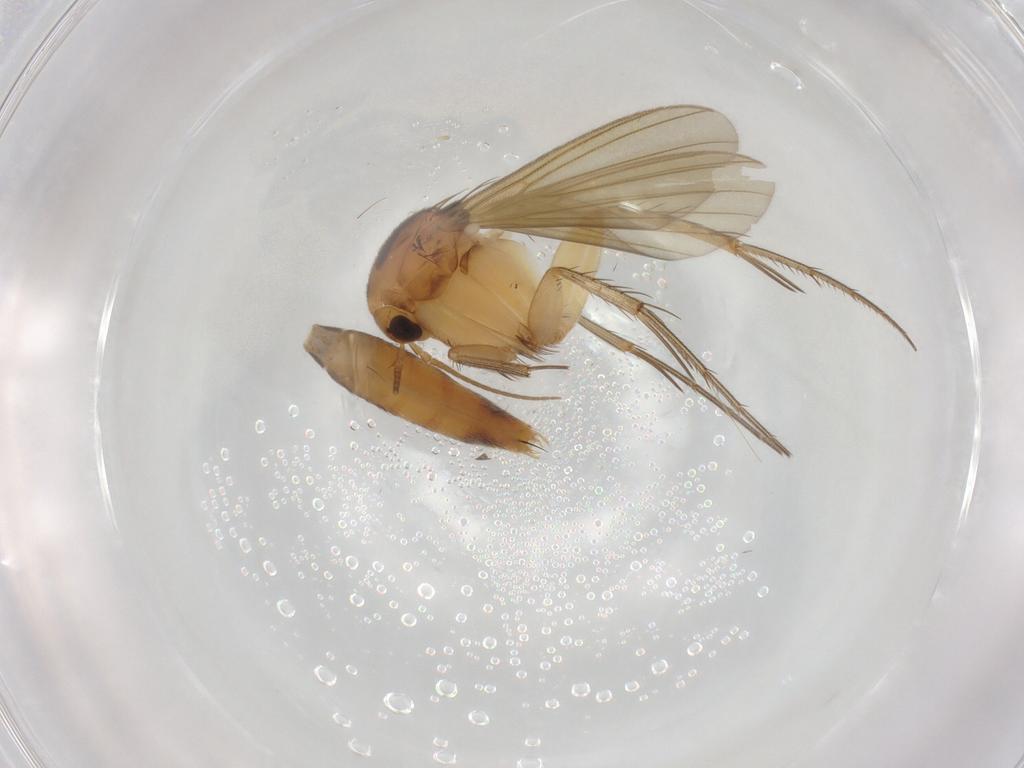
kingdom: Animalia
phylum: Arthropoda
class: Insecta
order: Diptera
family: Mycetophilidae
